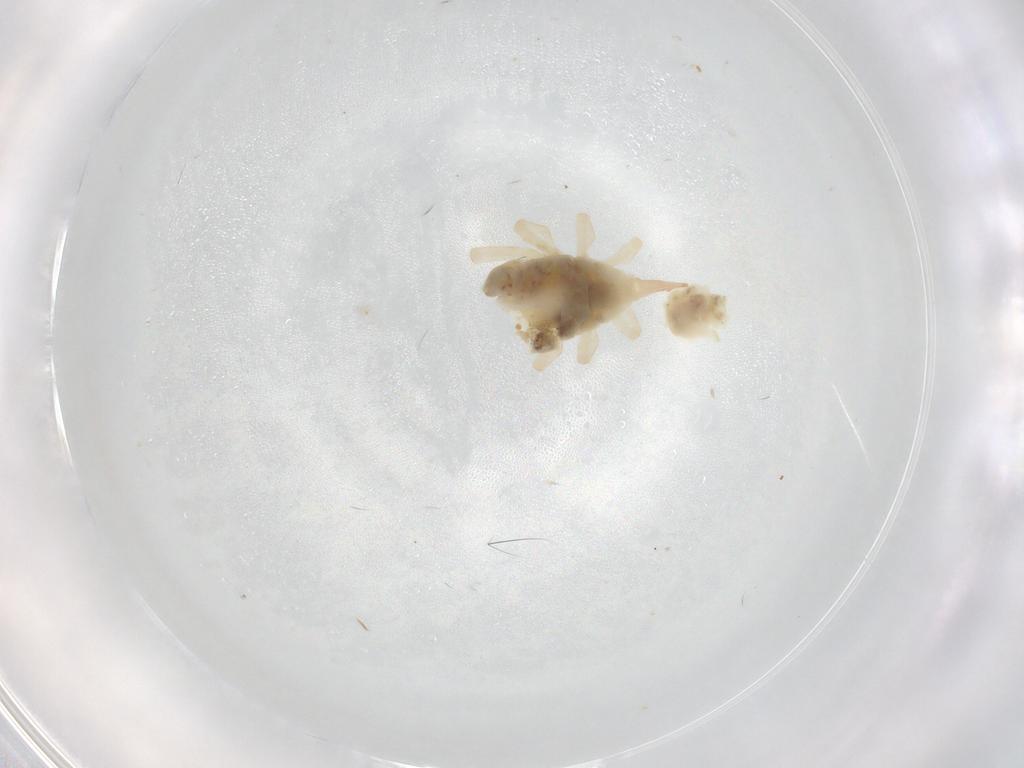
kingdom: Animalia
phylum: Arthropoda
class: Arachnida
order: Trombidiformes
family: Bdellidae
